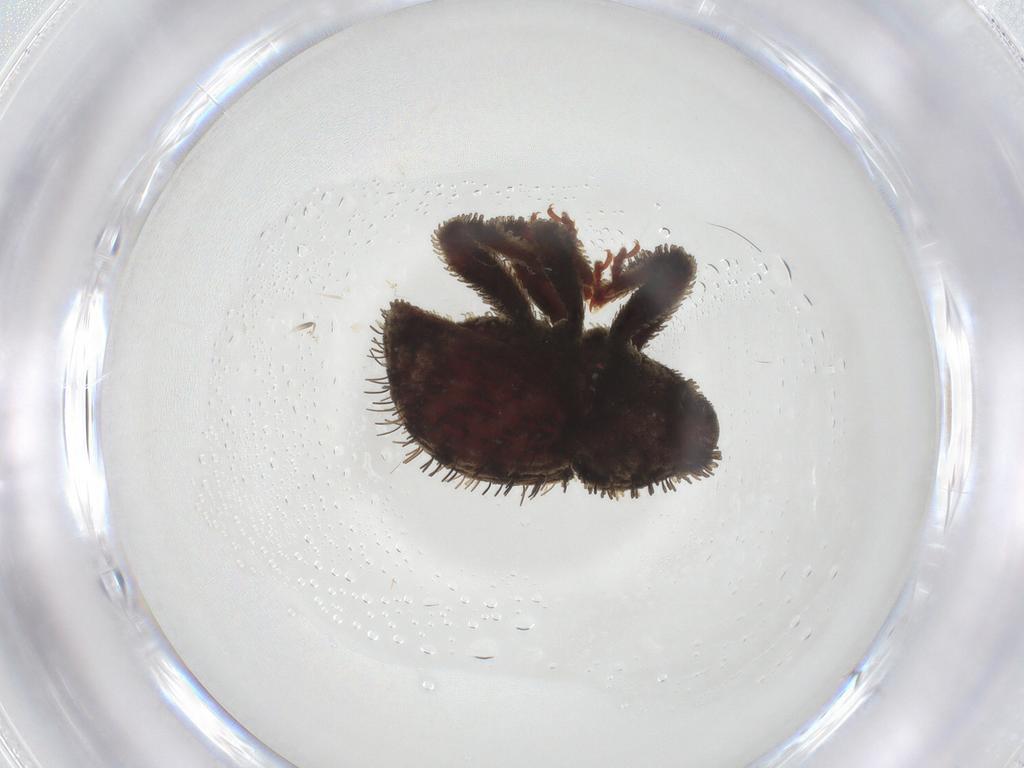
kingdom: Animalia
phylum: Arthropoda
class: Insecta
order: Coleoptera
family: Curculionidae
